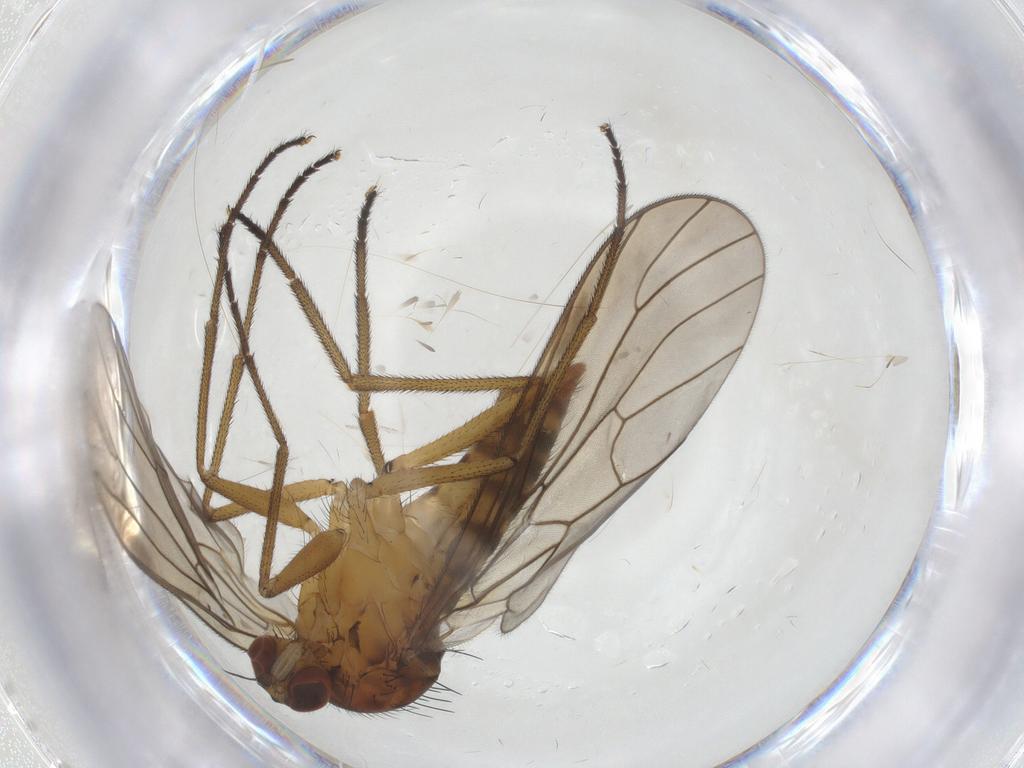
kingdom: Animalia
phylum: Arthropoda
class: Insecta
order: Diptera
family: Brachystomatidae
